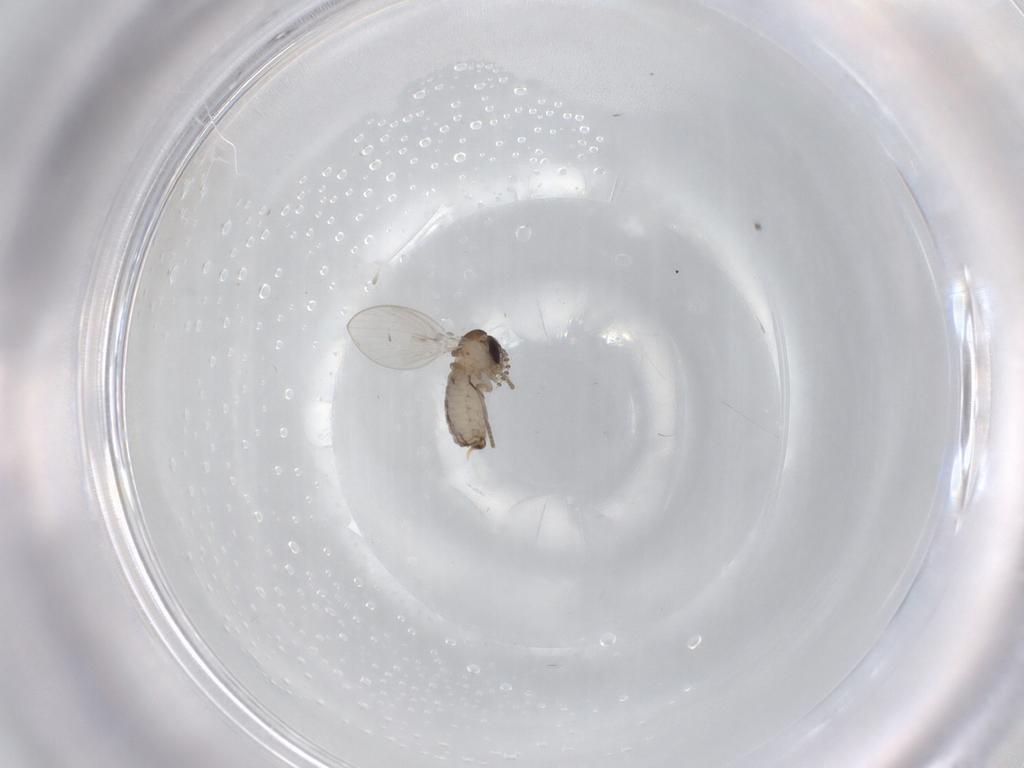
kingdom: Animalia
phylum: Arthropoda
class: Insecta
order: Diptera
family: Psychodidae
